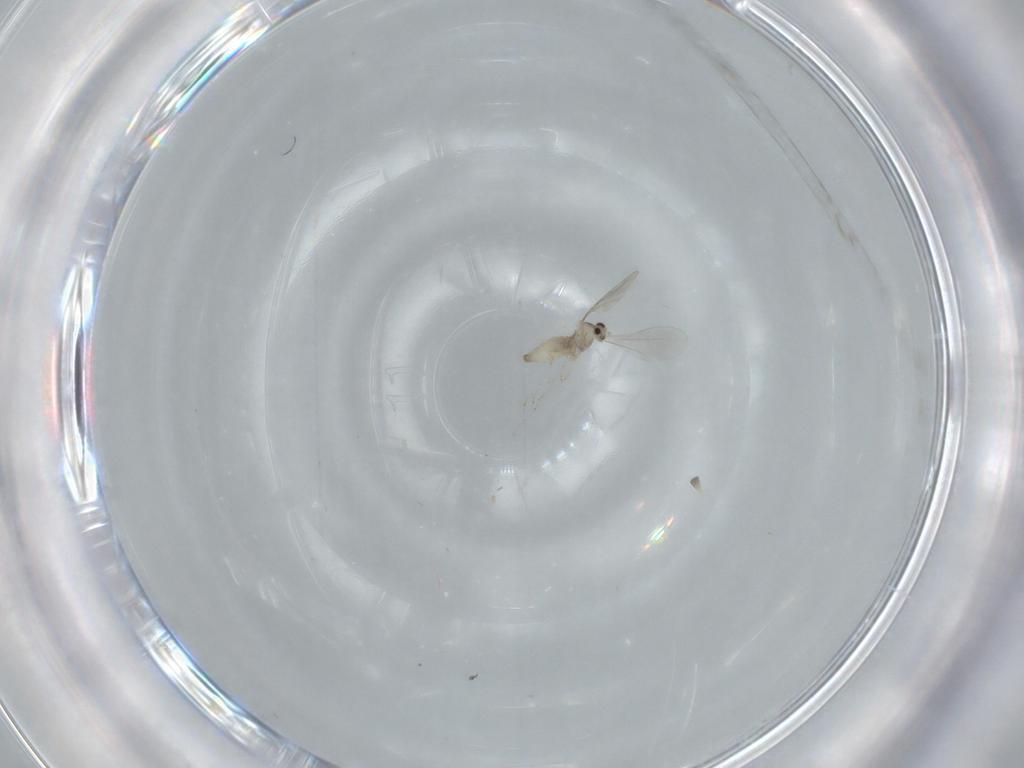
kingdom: Animalia
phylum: Arthropoda
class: Insecta
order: Diptera
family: Cecidomyiidae
